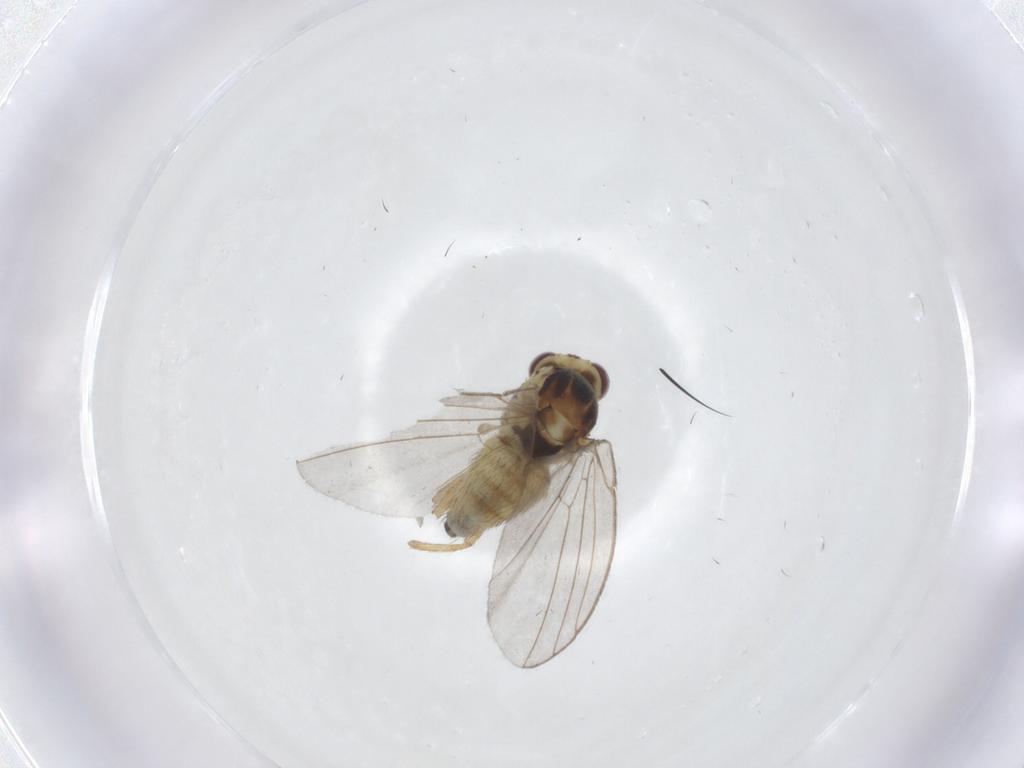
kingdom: Animalia
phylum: Arthropoda
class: Insecta
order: Diptera
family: Agromyzidae
